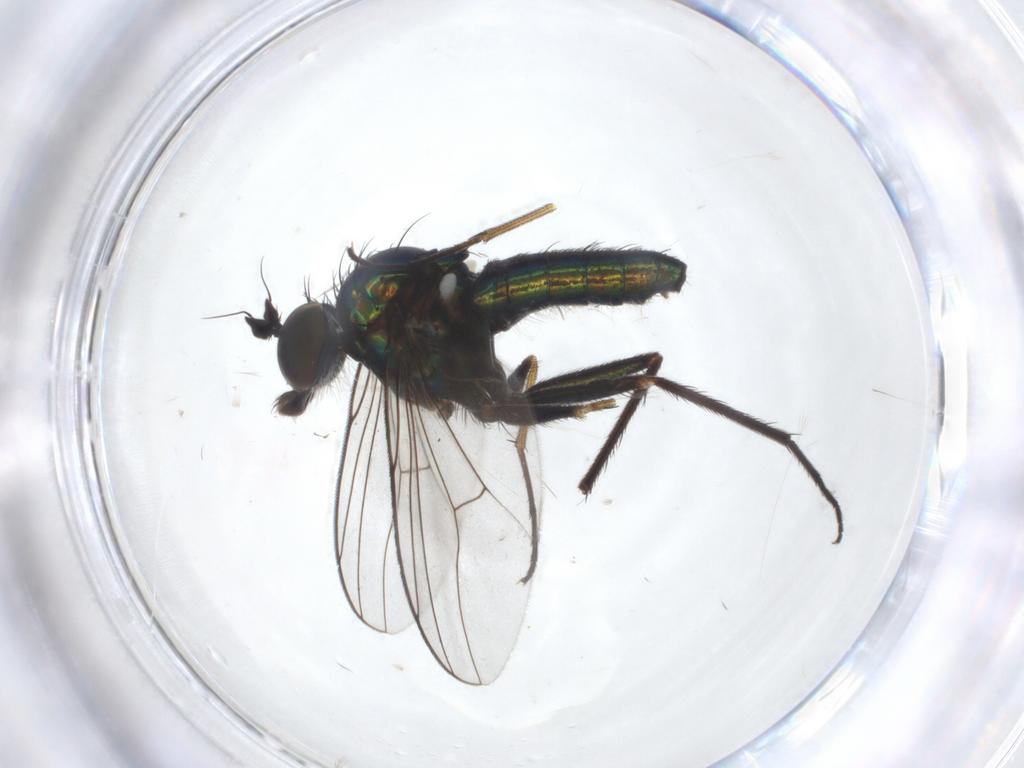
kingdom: Animalia
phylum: Arthropoda
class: Insecta
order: Diptera
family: Dolichopodidae
